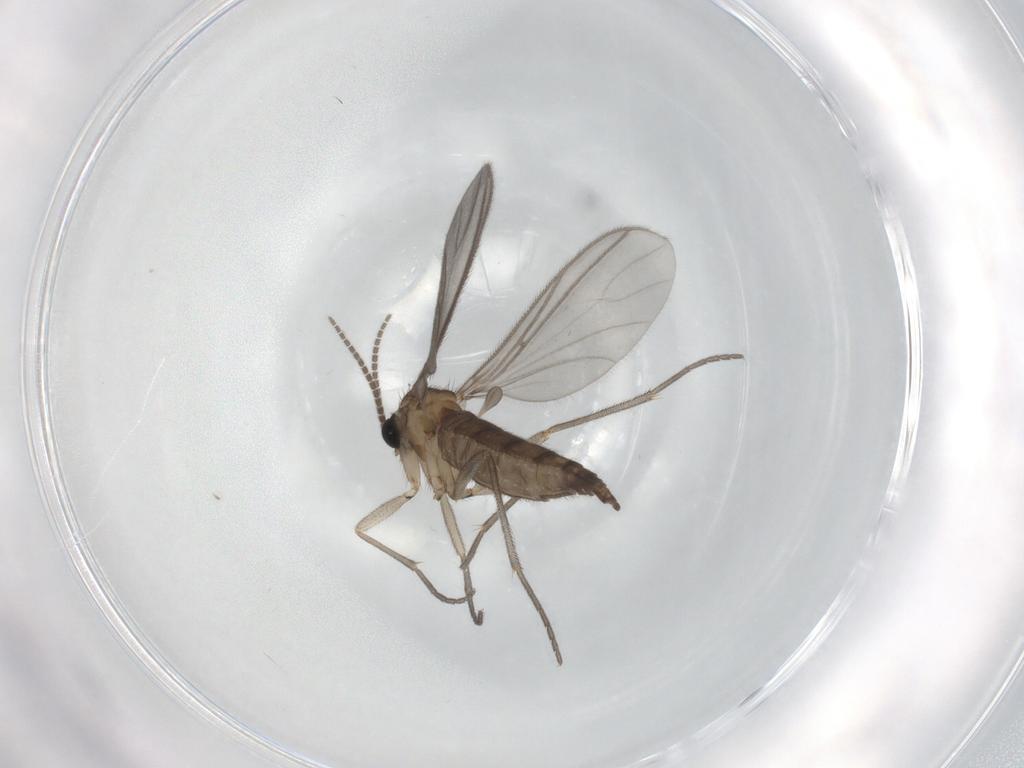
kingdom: Animalia
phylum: Arthropoda
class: Insecta
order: Diptera
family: Sciaridae
